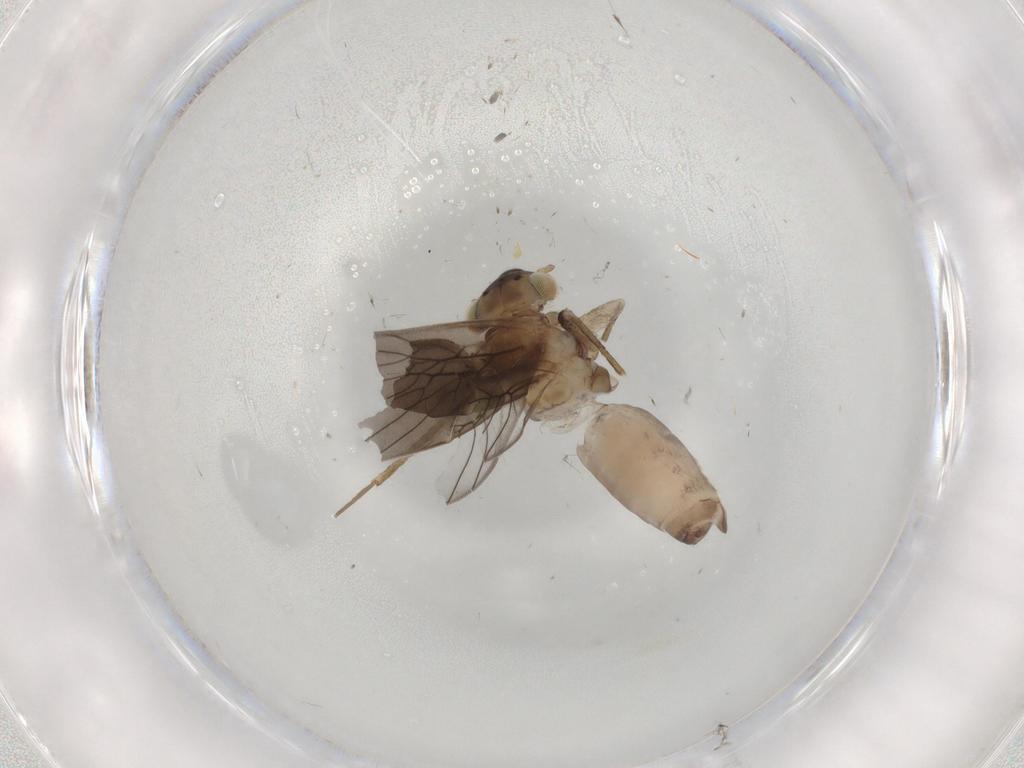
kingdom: Animalia
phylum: Arthropoda
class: Insecta
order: Psocodea
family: Lepidopsocidae
